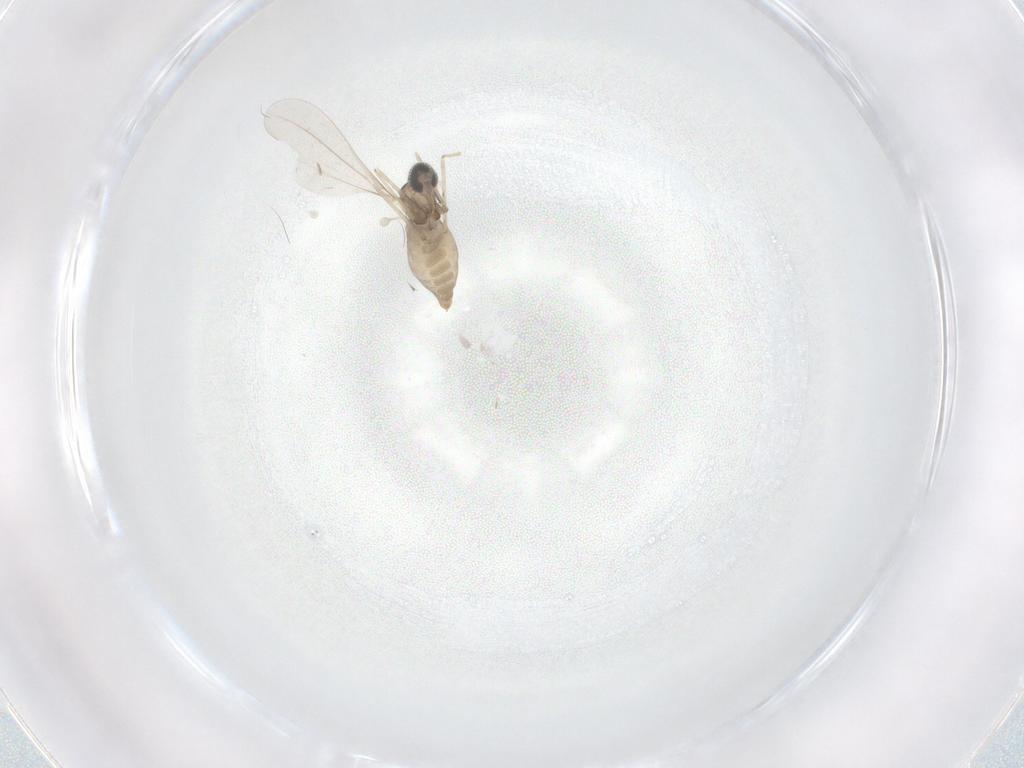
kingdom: Animalia
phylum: Arthropoda
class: Insecta
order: Diptera
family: Cecidomyiidae
